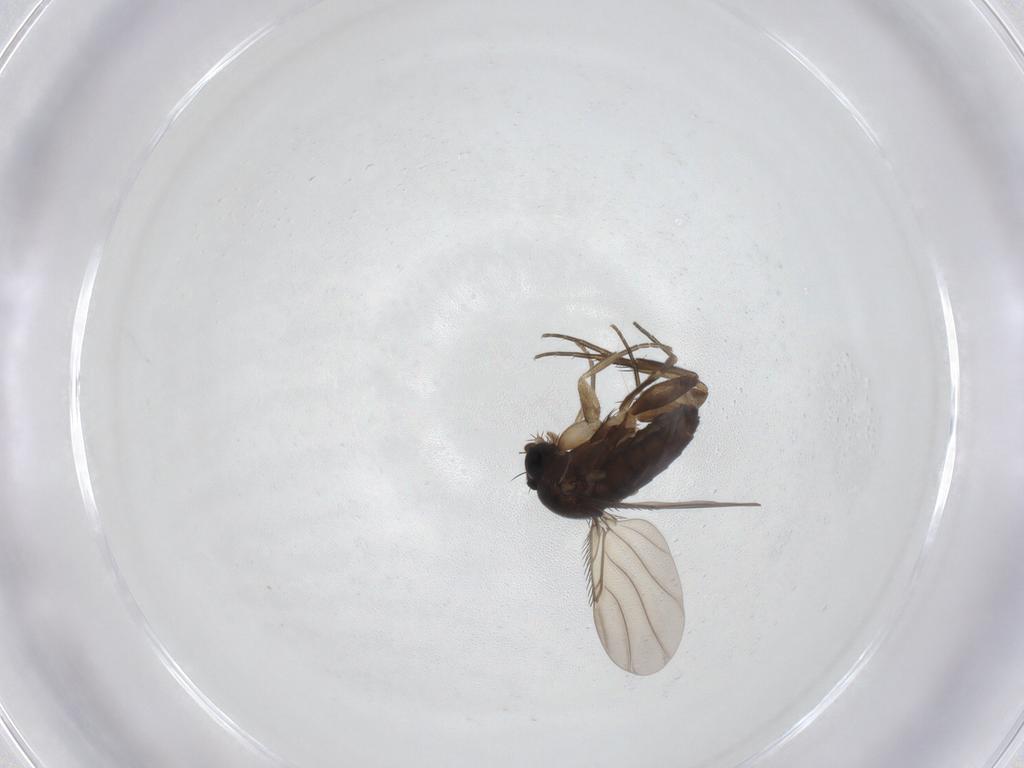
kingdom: Animalia
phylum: Arthropoda
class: Insecta
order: Diptera
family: Phoridae
